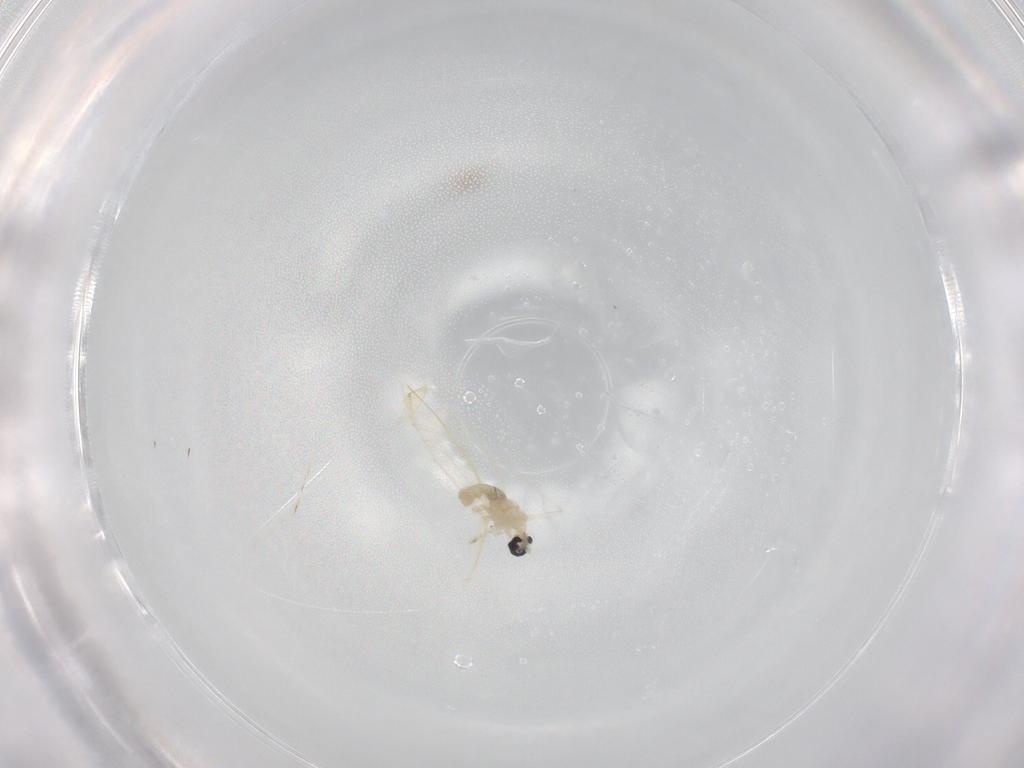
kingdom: Animalia
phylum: Arthropoda
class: Insecta
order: Diptera
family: Cecidomyiidae
